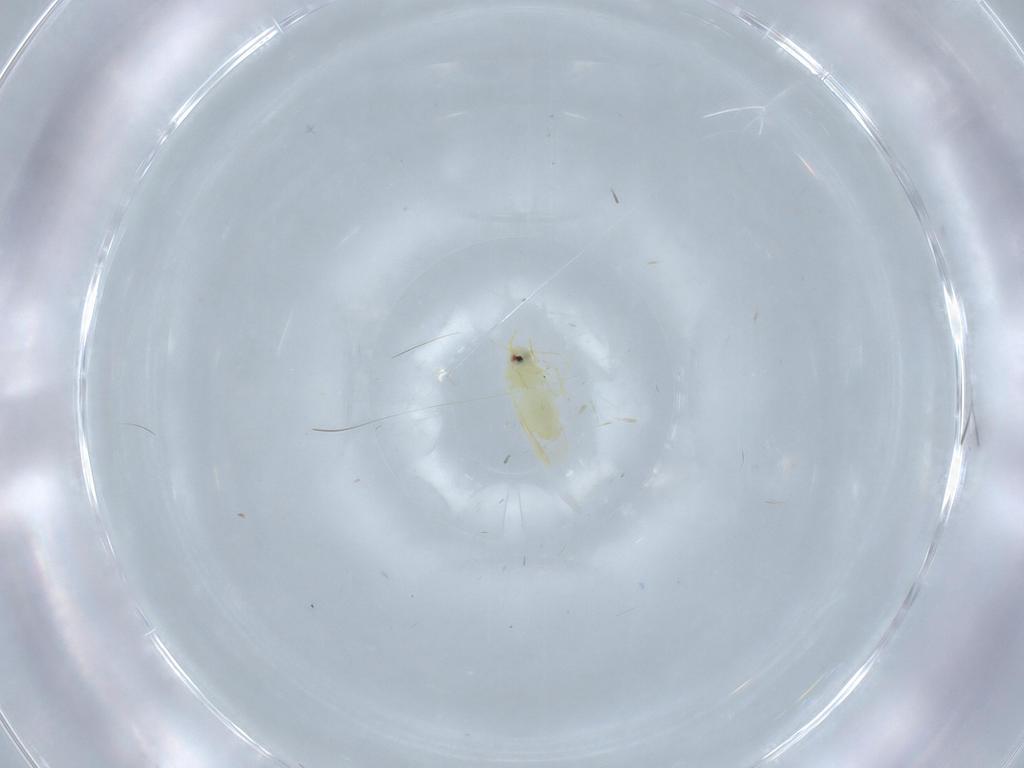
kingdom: Animalia
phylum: Arthropoda
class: Insecta
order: Hemiptera
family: Aleyrodidae
